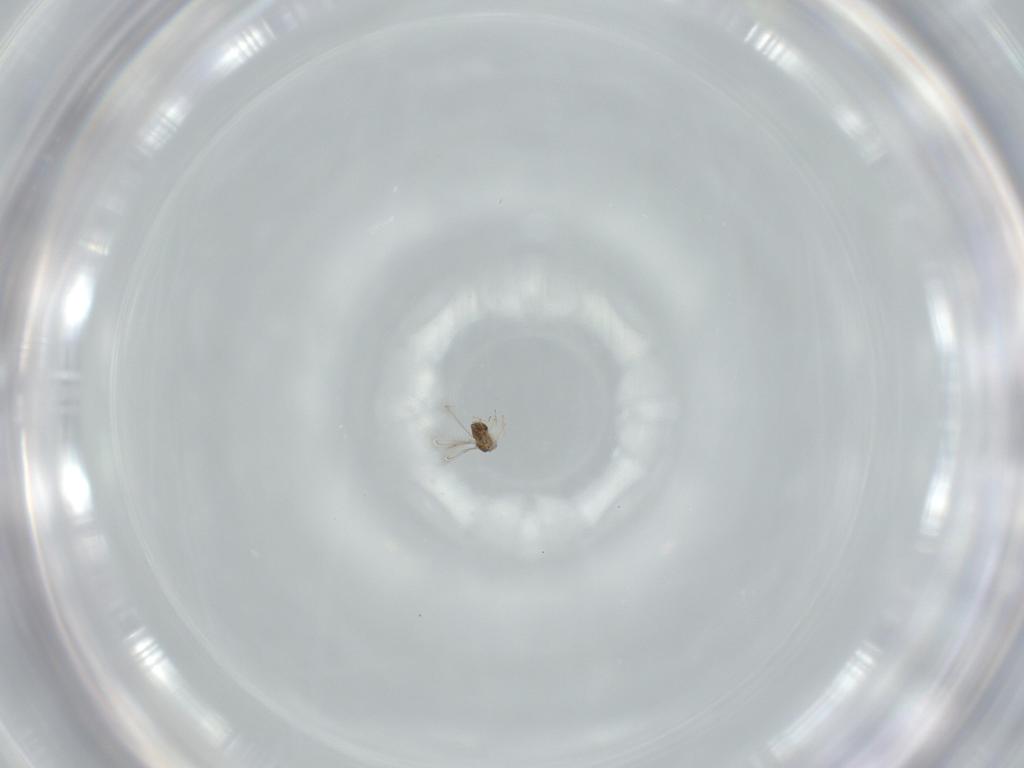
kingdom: Animalia
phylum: Arthropoda
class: Insecta
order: Hymenoptera
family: Mymaridae
